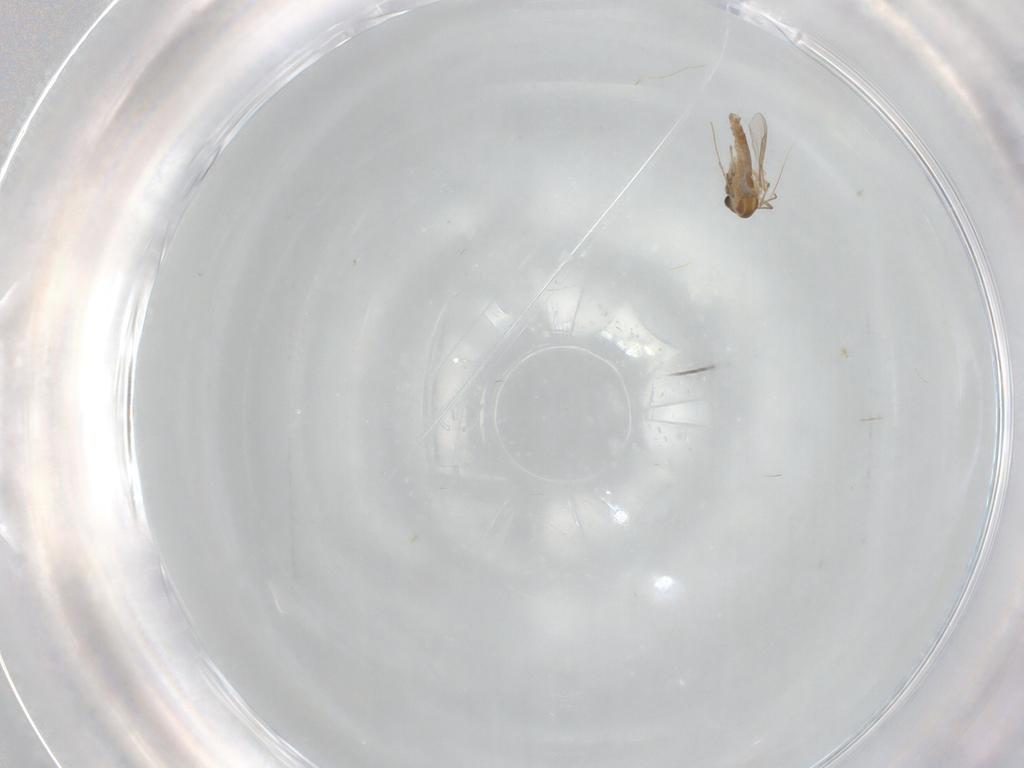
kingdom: Animalia
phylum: Arthropoda
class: Insecta
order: Diptera
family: Chironomidae
